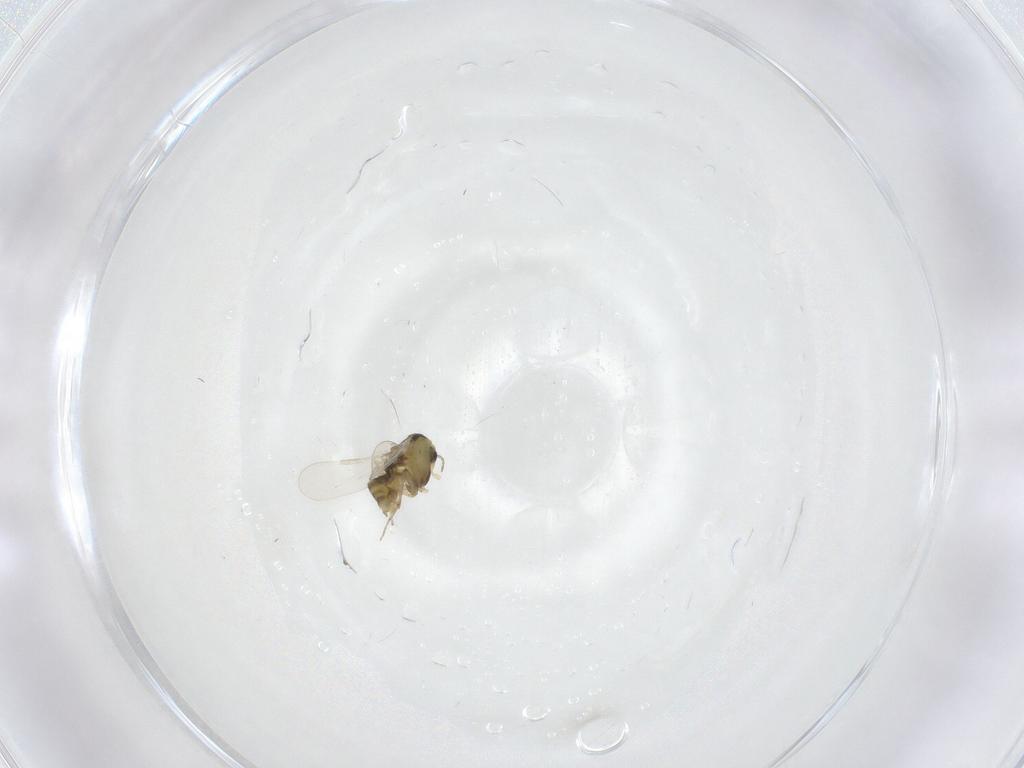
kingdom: Animalia
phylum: Arthropoda
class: Insecta
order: Diptera
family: Chironomidae
